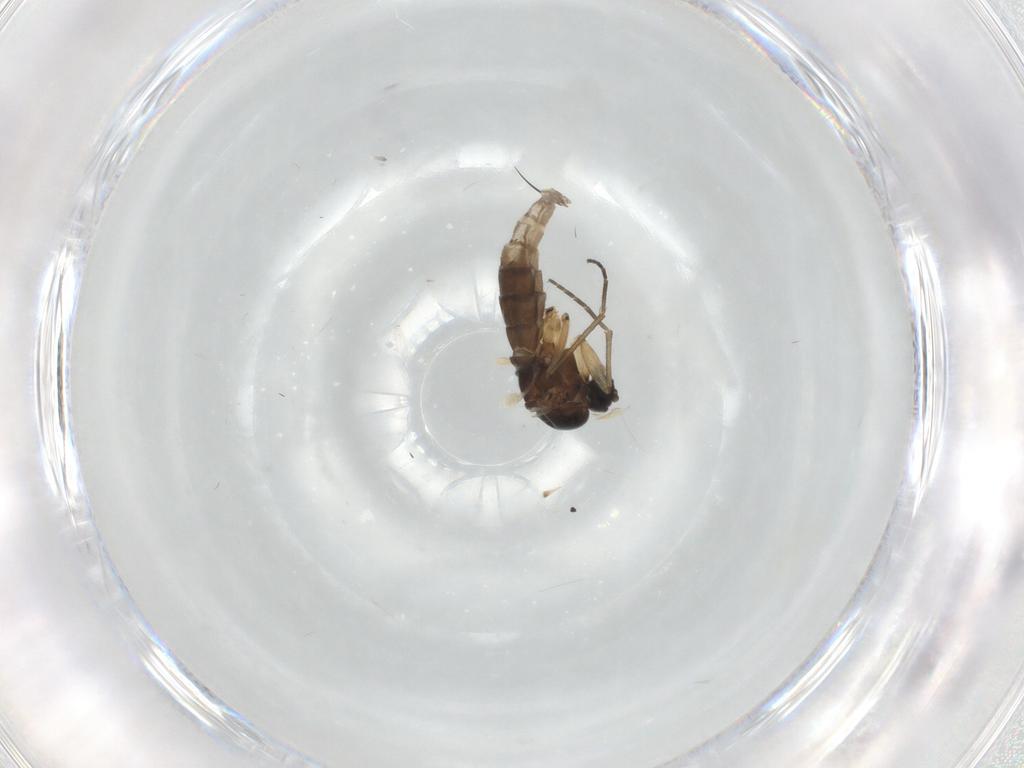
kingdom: Animalia
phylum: Arthropoda
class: Insecta
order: Diptera
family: Sciaridae
